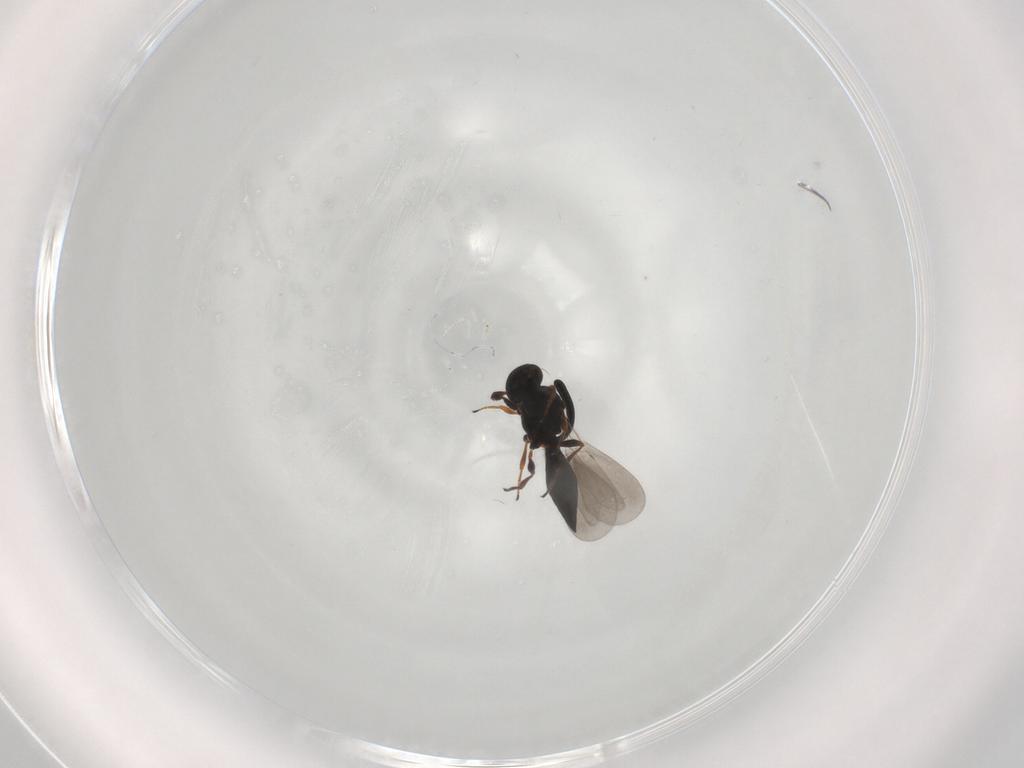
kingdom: Animalia
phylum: Arthropoda
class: Insecta
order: Hymenoptera
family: Platygastridae
